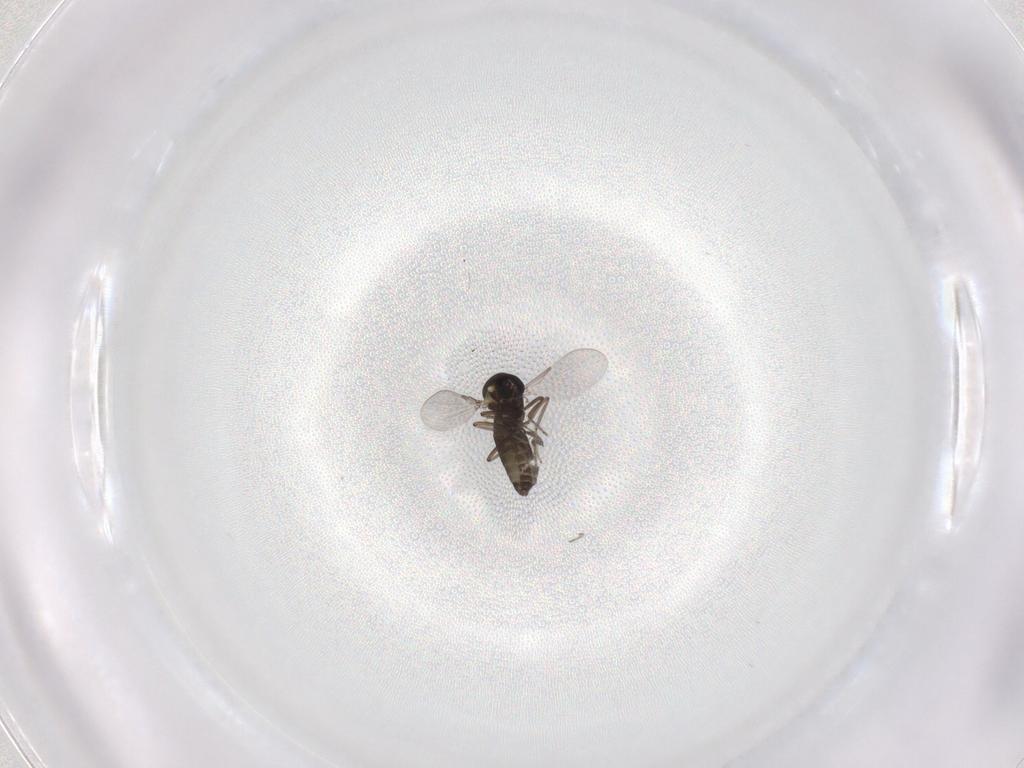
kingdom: Animalia
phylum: Arthropoda
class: Insecta
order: Diptera
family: Ceratopogonidae
